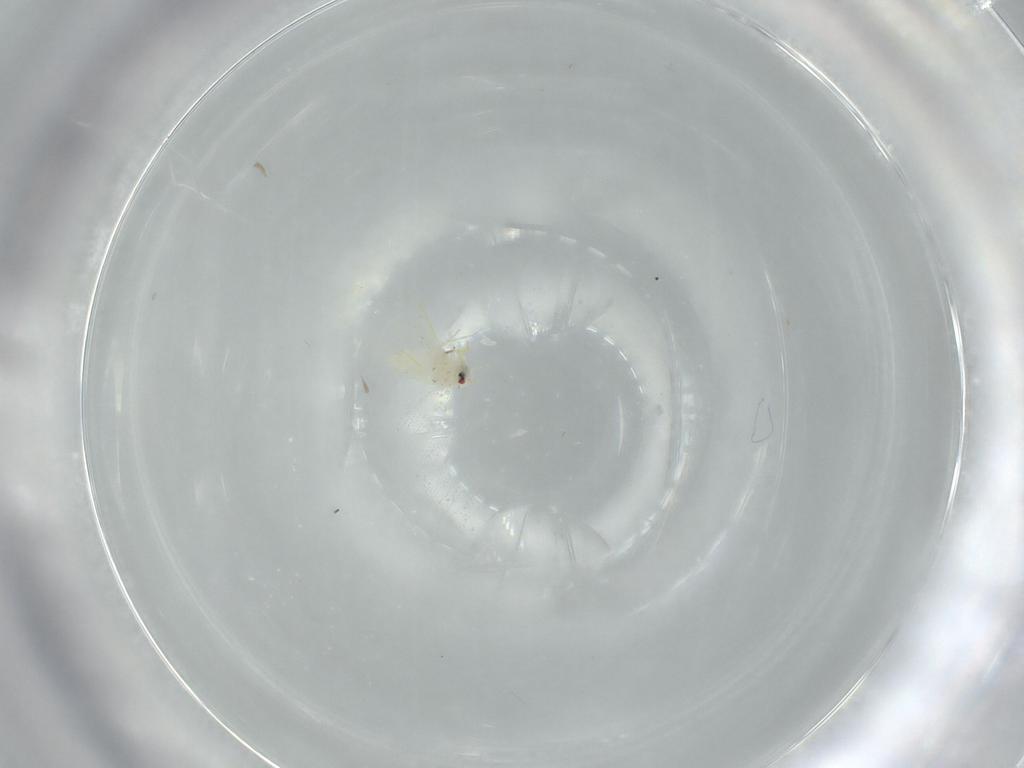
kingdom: Animalia
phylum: Arthropoda
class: Insecta
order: Hemiptera
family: Aleyrodidae
